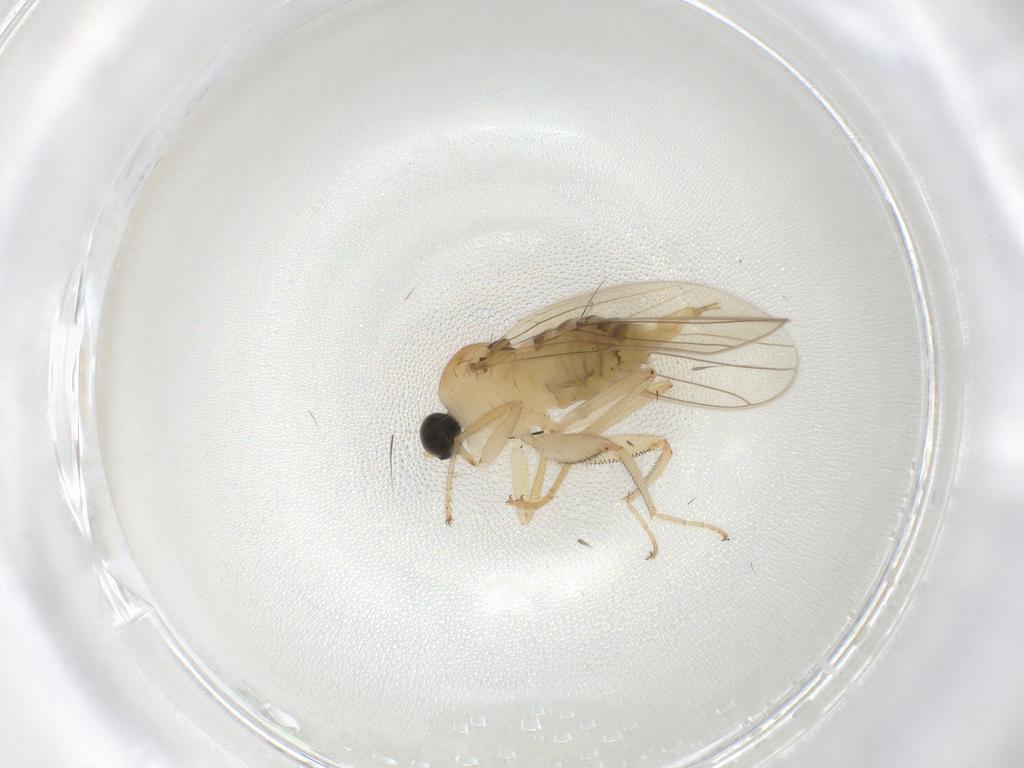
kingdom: Animalia
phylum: Arthropoda
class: Insecta
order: Diptera
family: Hybotidae
